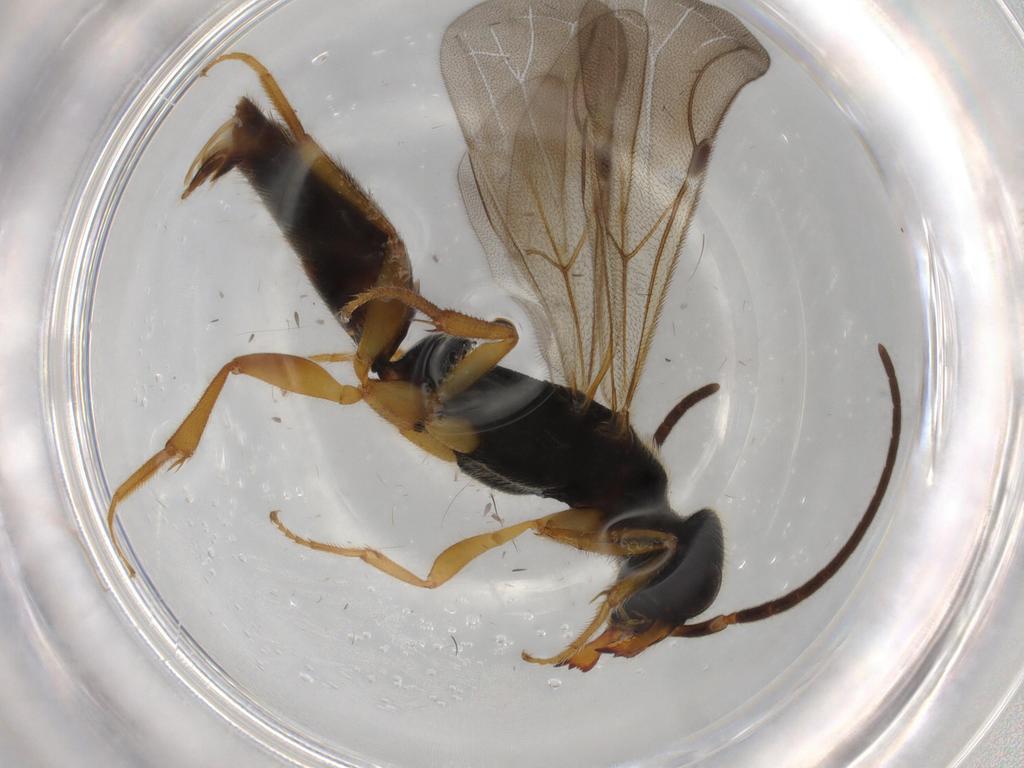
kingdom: Animalia
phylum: Arthropoda
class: Insecta
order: Hymenoptera
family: Bethylidae
